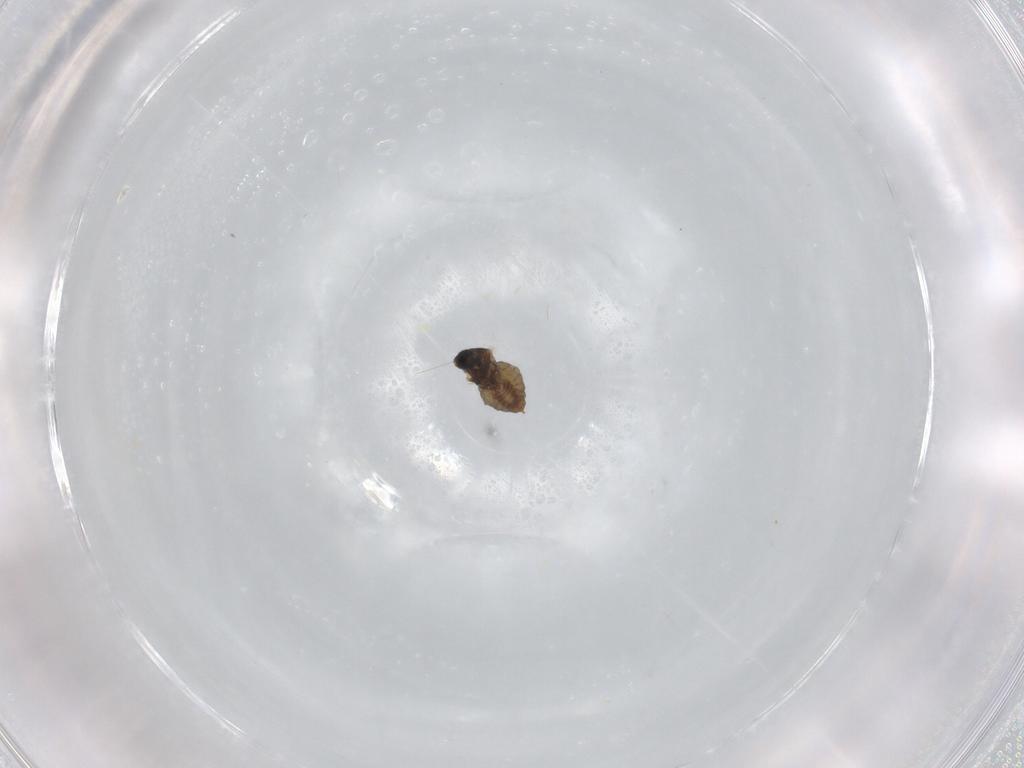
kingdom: Animalia
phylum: Arthropoda
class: Insecta
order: Diptera
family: Cecidomyiidae
